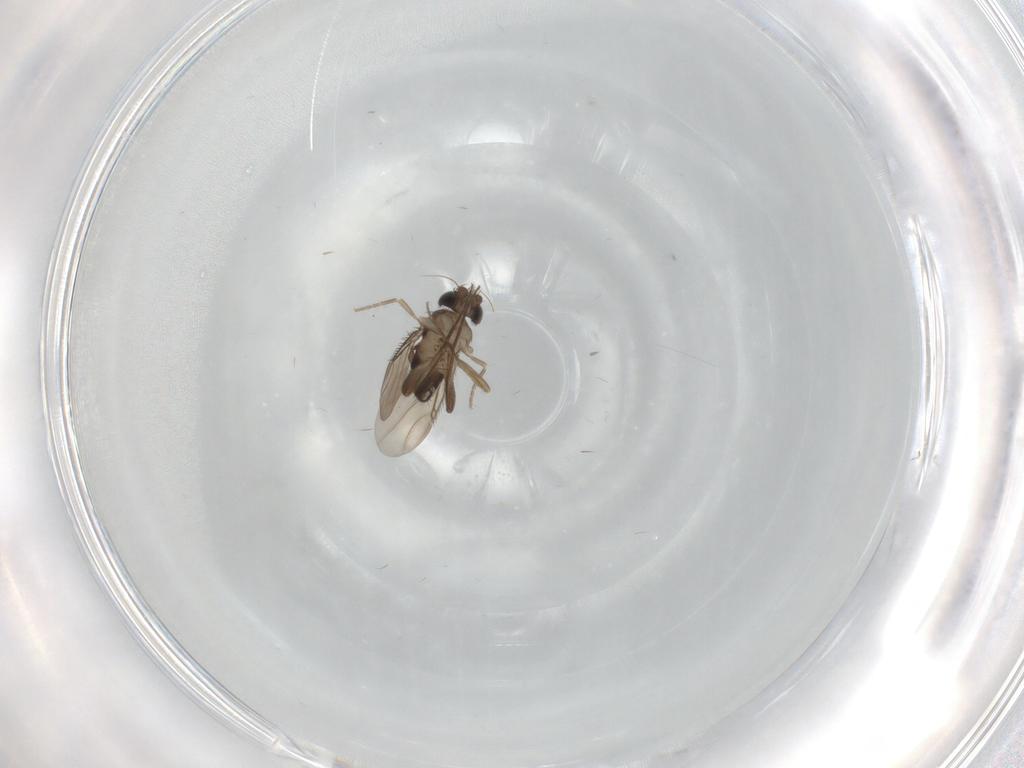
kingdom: Animalia
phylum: Arthropoda
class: Insecta
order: Diptera
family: Phoridae
